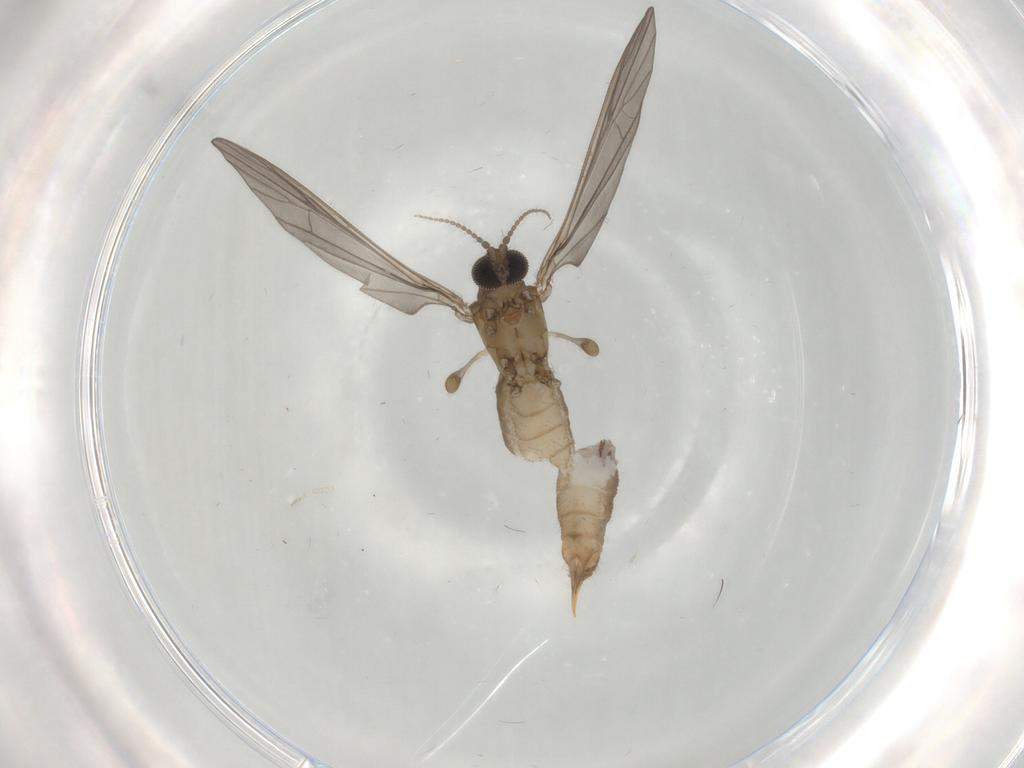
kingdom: Animalia
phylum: Arthropoda
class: Insecta
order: Diptera
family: Limoniidae
